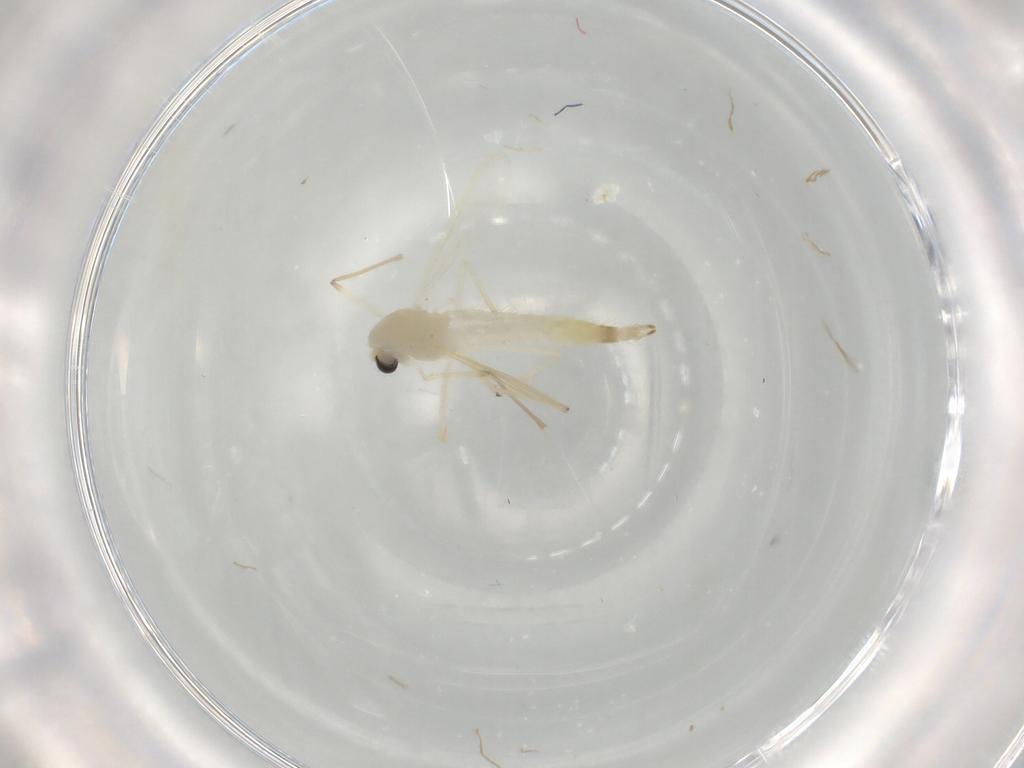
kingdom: Animalia
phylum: Arthropoda
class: Insecta
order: Diptera
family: Chironomidae
